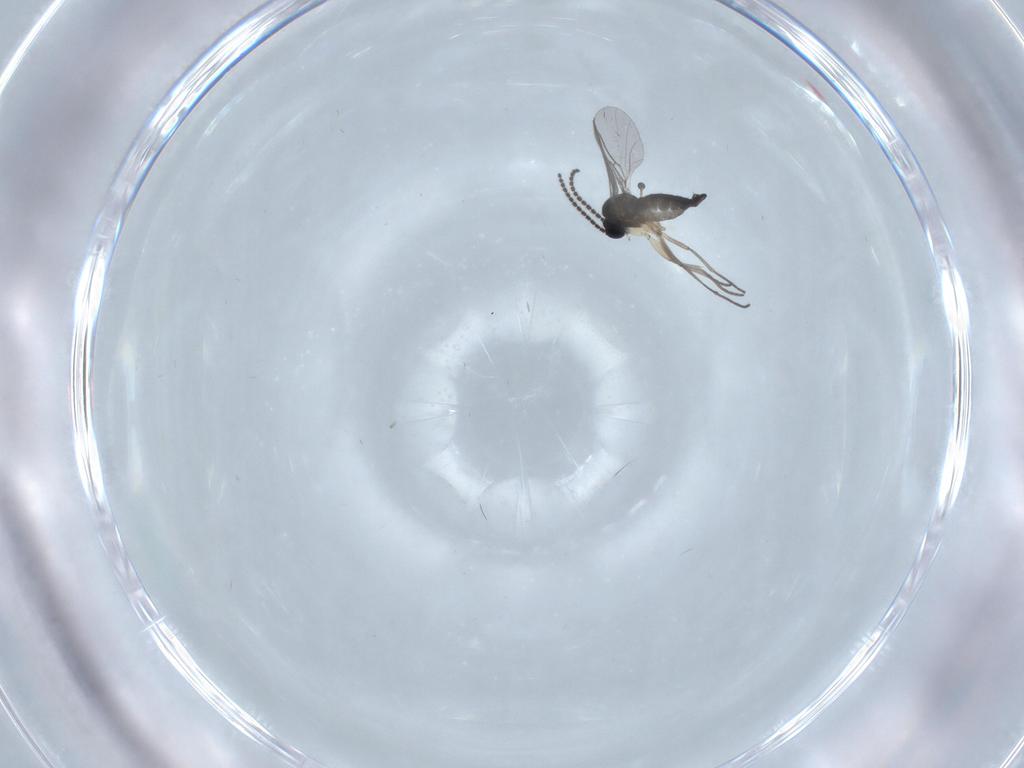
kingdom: Animalia
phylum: Arthropoda
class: Insecta
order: Diptera
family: Sciaridae
